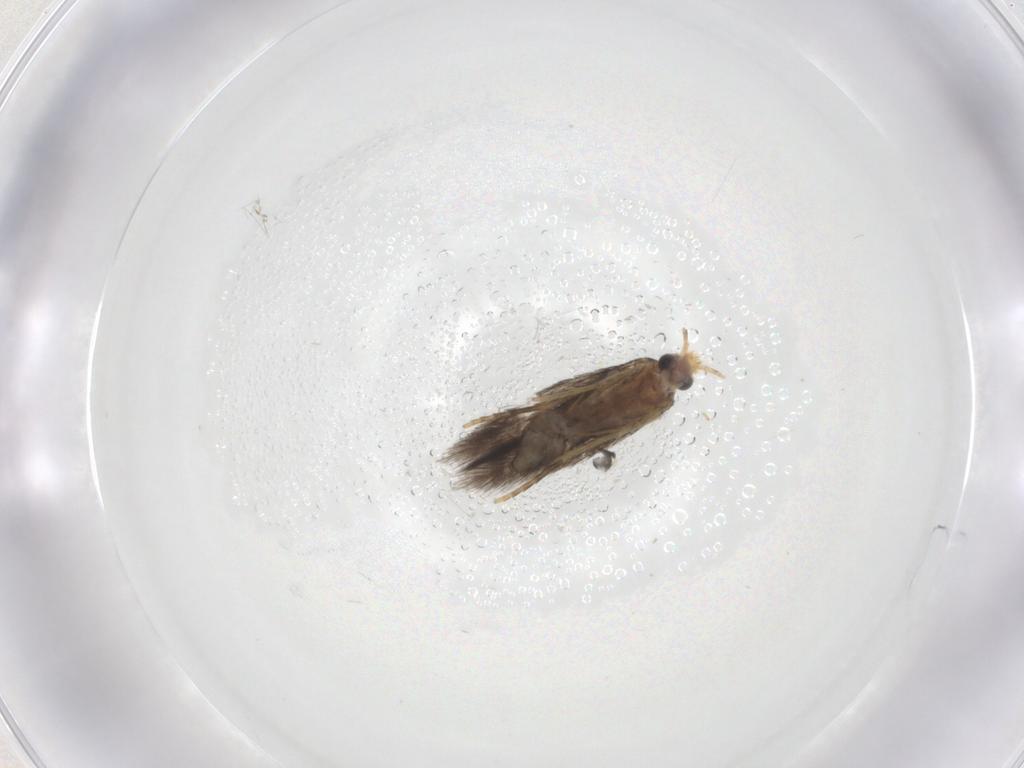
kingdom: Animalia
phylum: Arthropoda
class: Insecta
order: Lepidoptera
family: Nepticulidae
